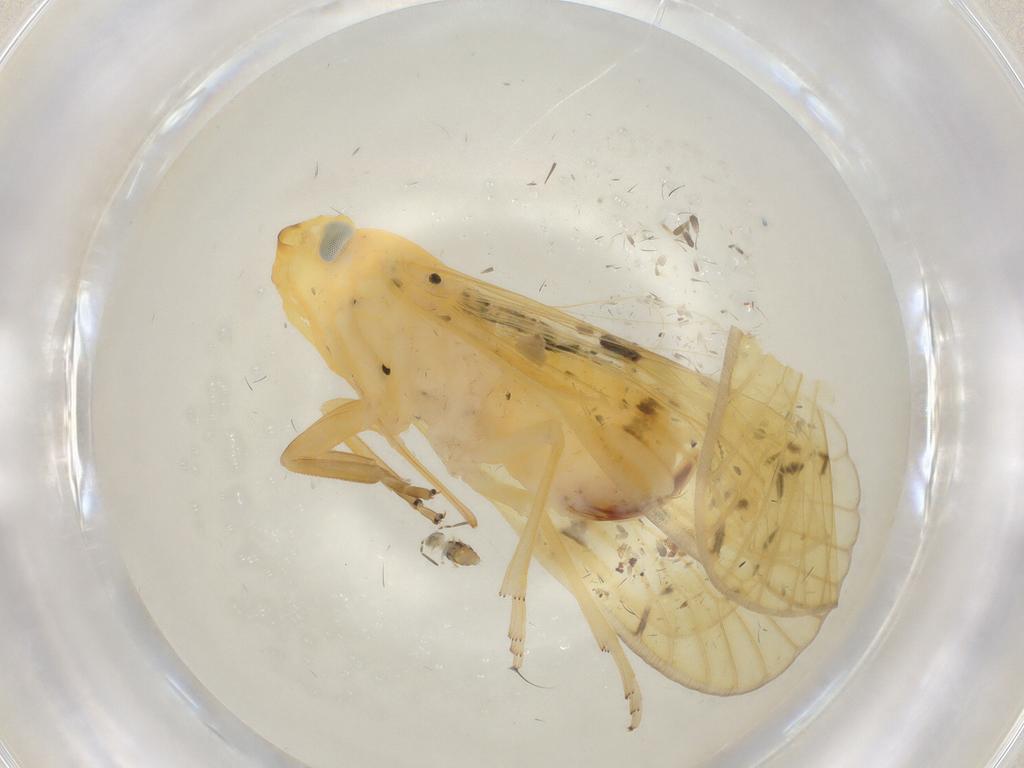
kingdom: Animalia
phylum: Arthropoda
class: Insecta
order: Hemiptera
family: Cixiidae
